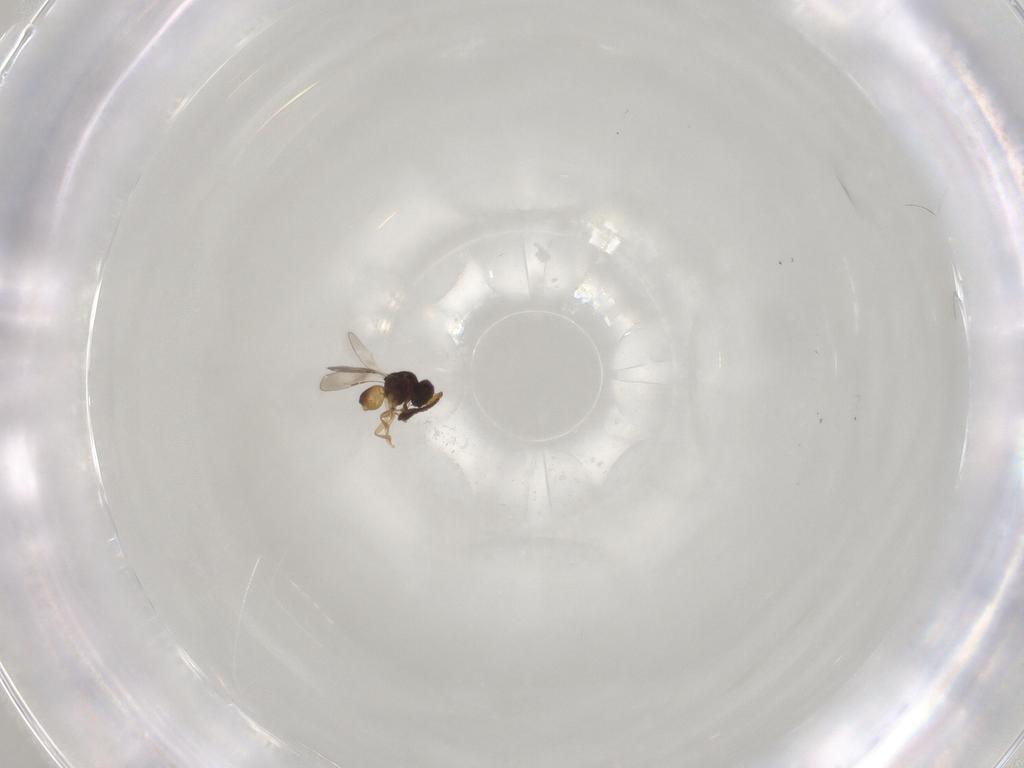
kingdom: Animalia
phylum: Arthropoda
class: Insecta
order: Hymenoptera
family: Ceraphronidae
